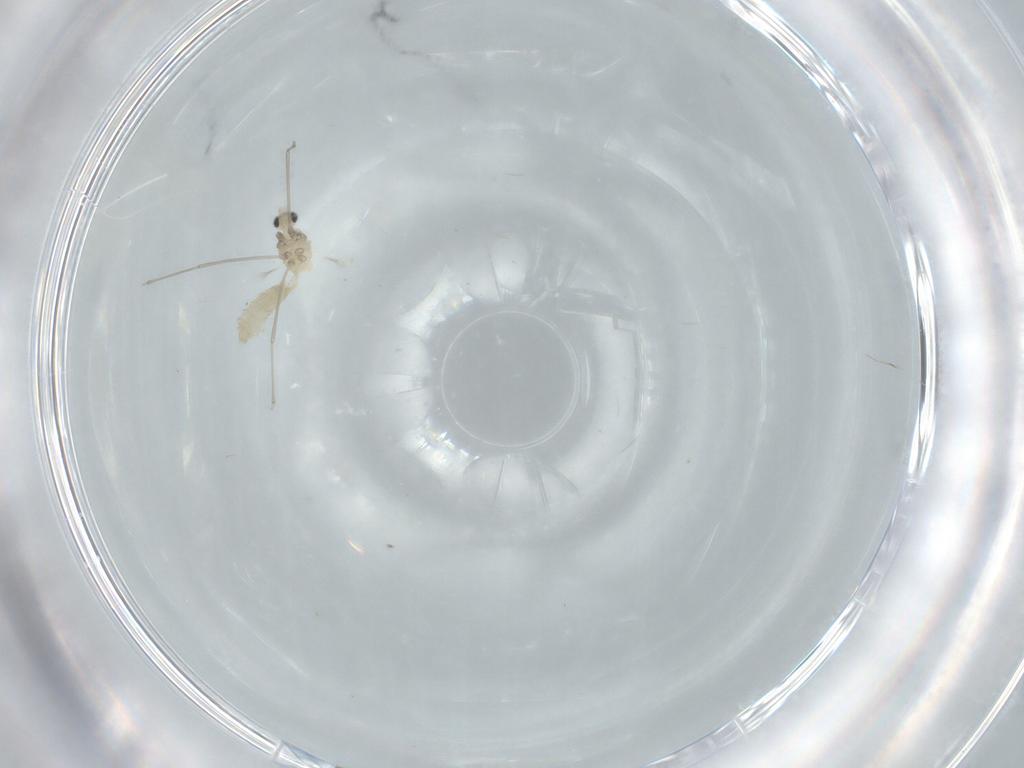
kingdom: Animalia
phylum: Arthropoda
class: Insecta
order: Diptera
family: Cecidomyiidae
